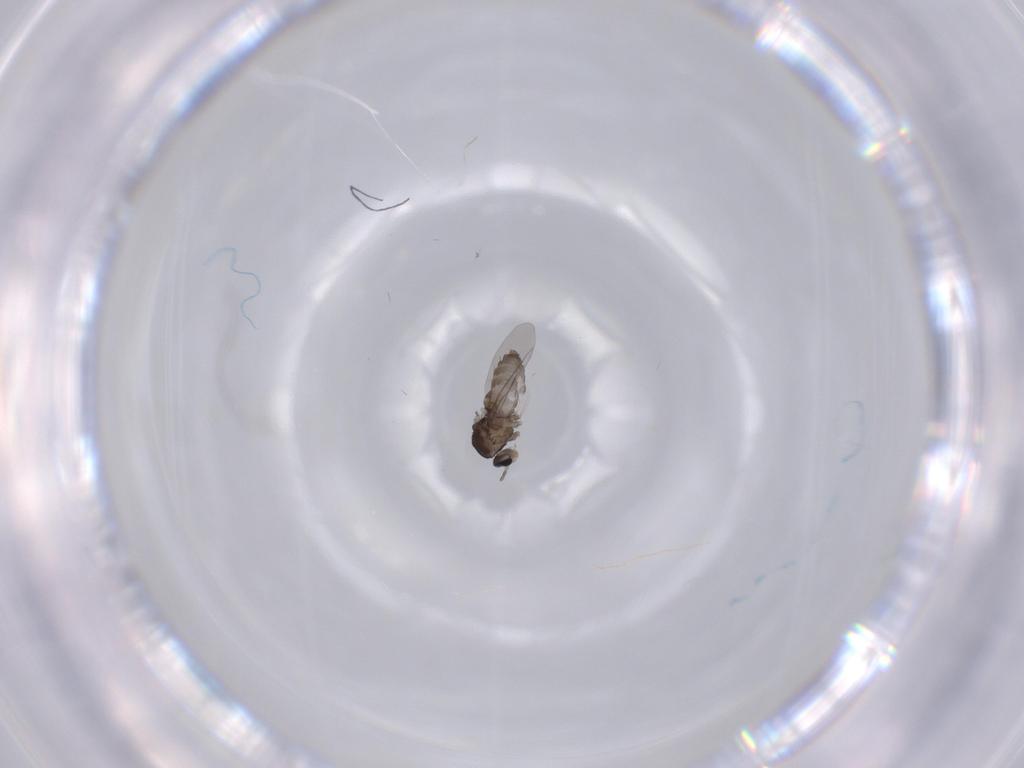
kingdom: Animalia
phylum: Arthropoda
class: Insecta
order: Diptera
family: Cecidomyiidae
